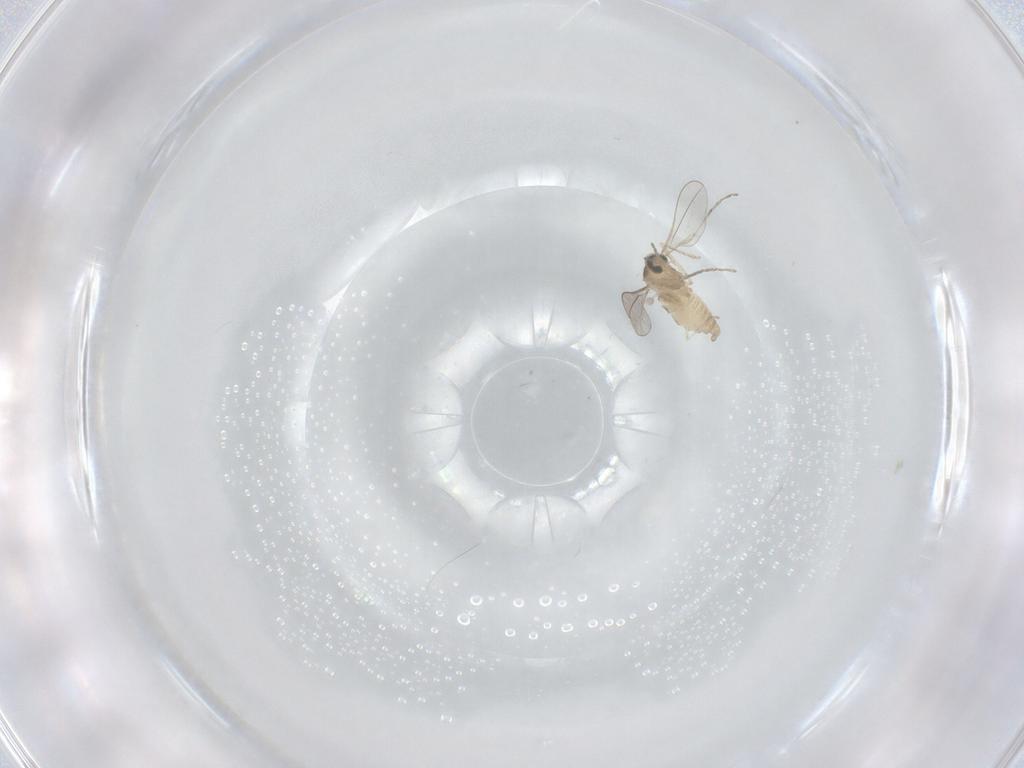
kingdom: Animalia
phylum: Arthropoda
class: Insecta
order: Diptera
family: Cecidomyiidae
